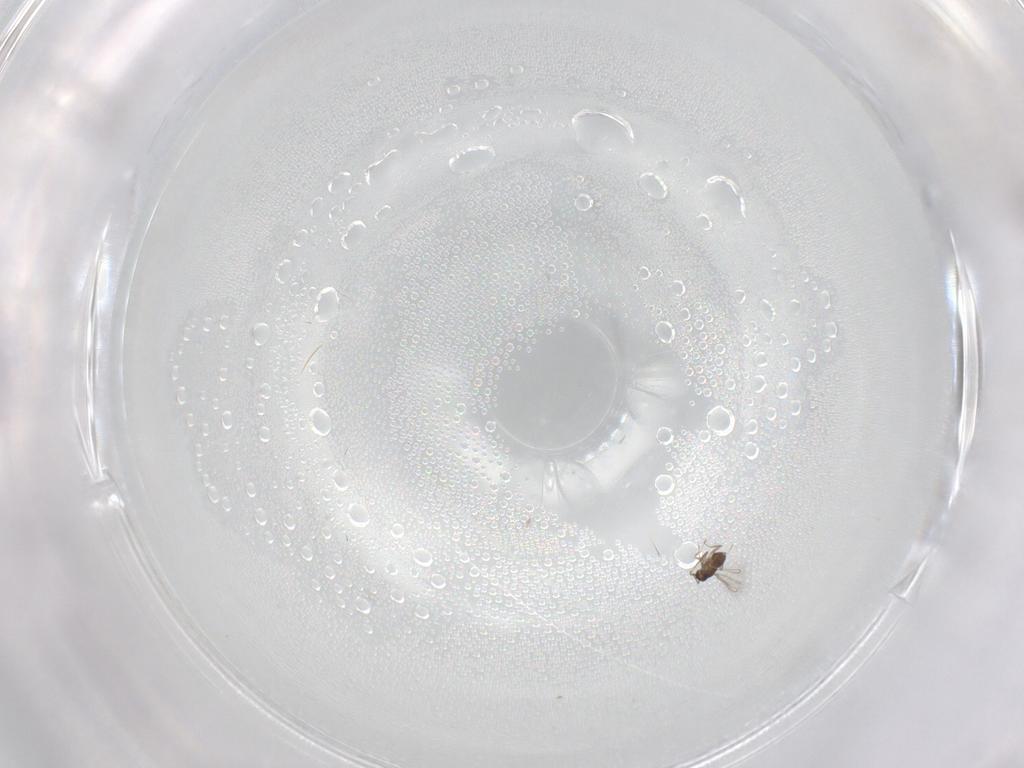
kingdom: Animalia
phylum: Arthropoda
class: Insecta
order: Hymenoptera
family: Mymaridae
